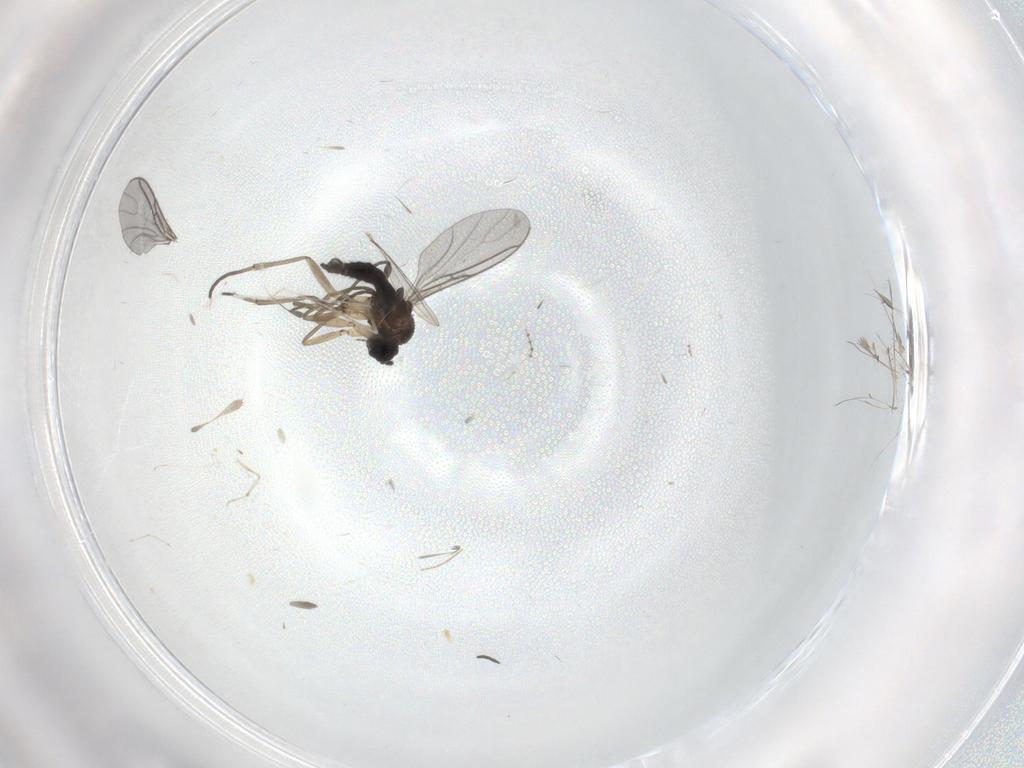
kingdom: Animalia
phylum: Arthropoda
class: Insecta
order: Diptera
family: Sciaridae
